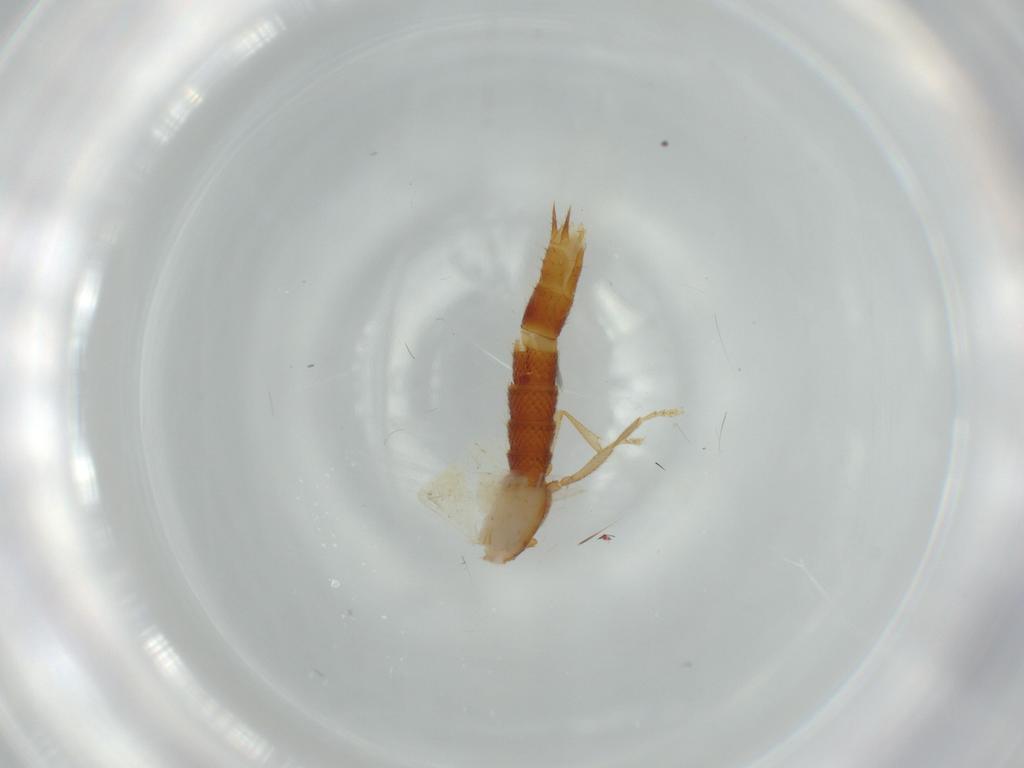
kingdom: Animalia
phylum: Arthropoda
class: Insecta
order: Coleoptera
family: Staphylinidae
